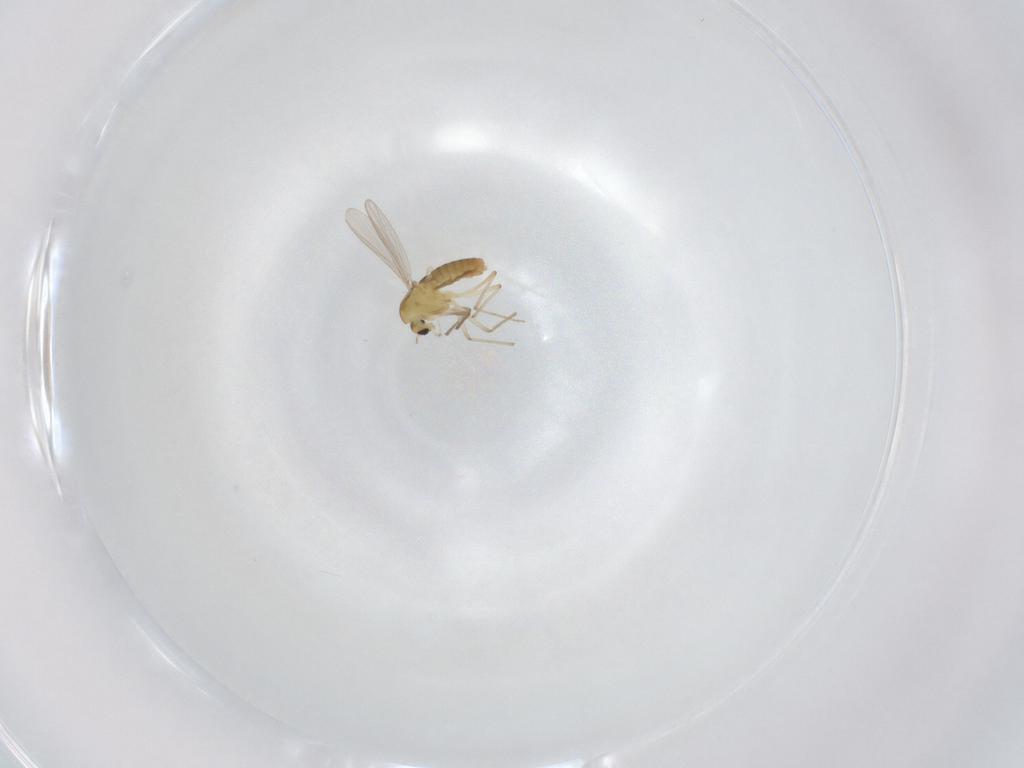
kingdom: Animalia
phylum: Arthropoda
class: Insecta
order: Diptera
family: Chironomidae
